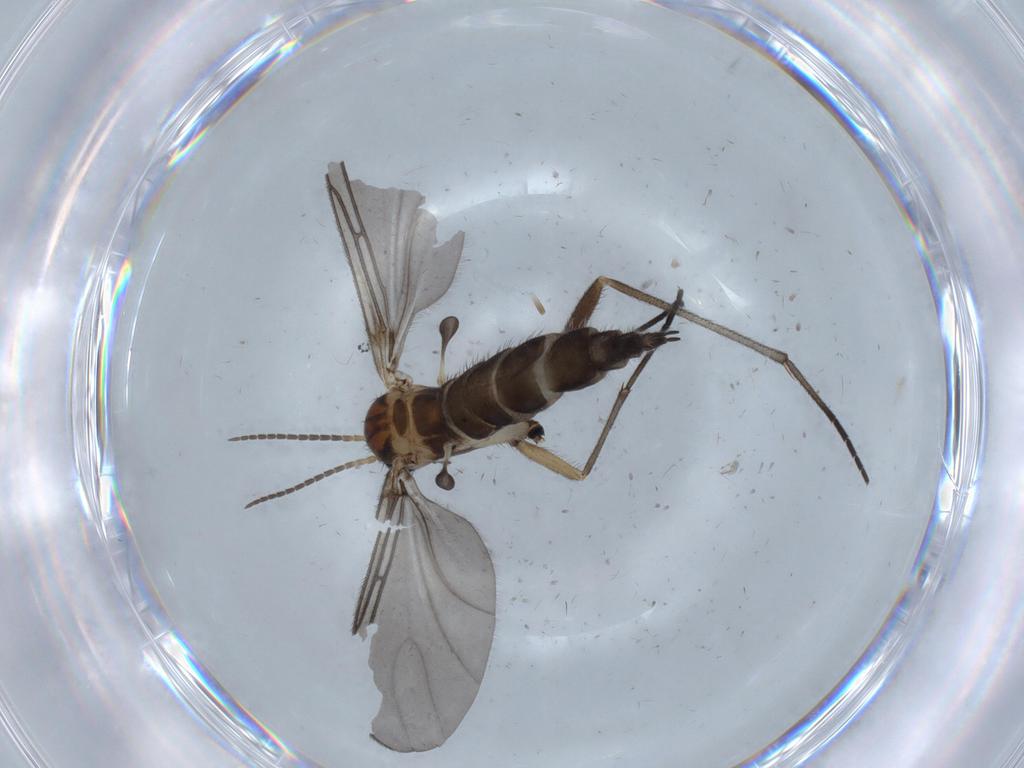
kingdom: Animalia
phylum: Arthropoda
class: Insecta
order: Diptera
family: Sciaridae
